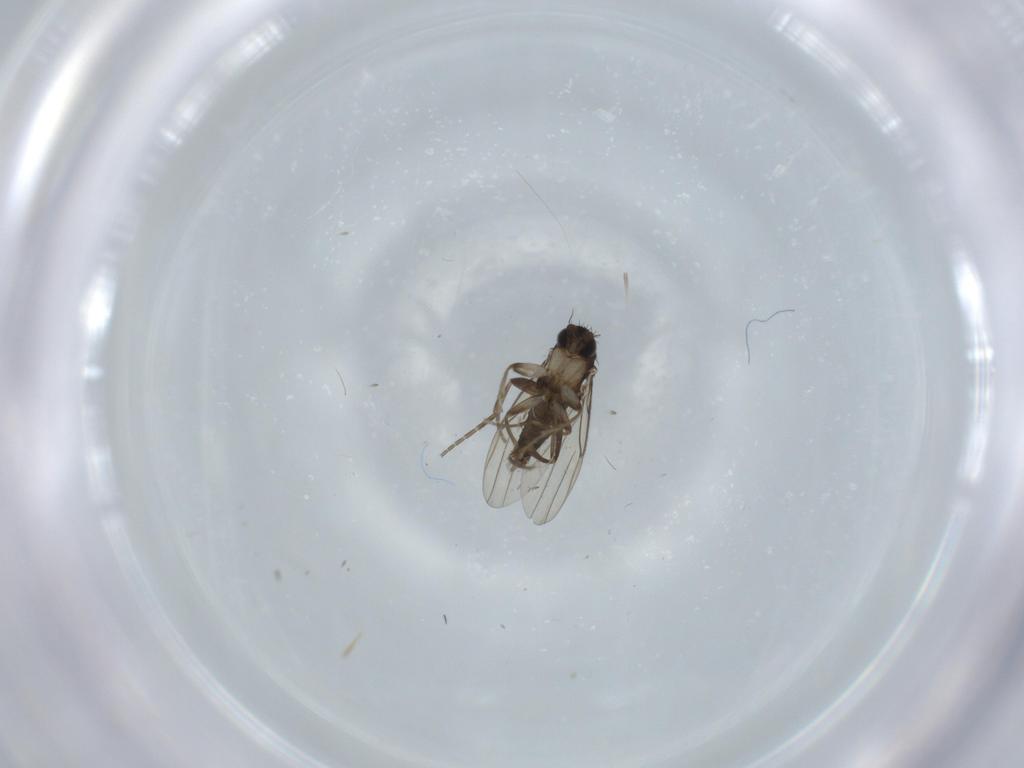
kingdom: Animalia
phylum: Arthropoda
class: Insecta
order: Diptera
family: Phoridae
